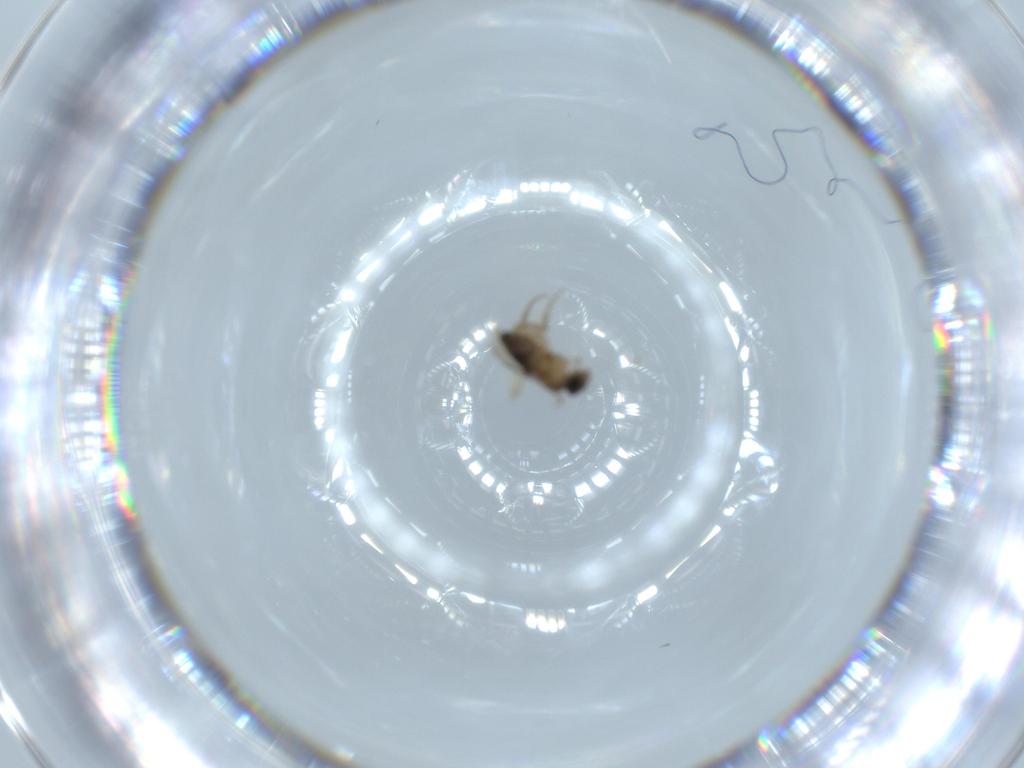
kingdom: Animalia
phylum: Arthropoda
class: Insecta
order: Diptera
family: Phoridae
